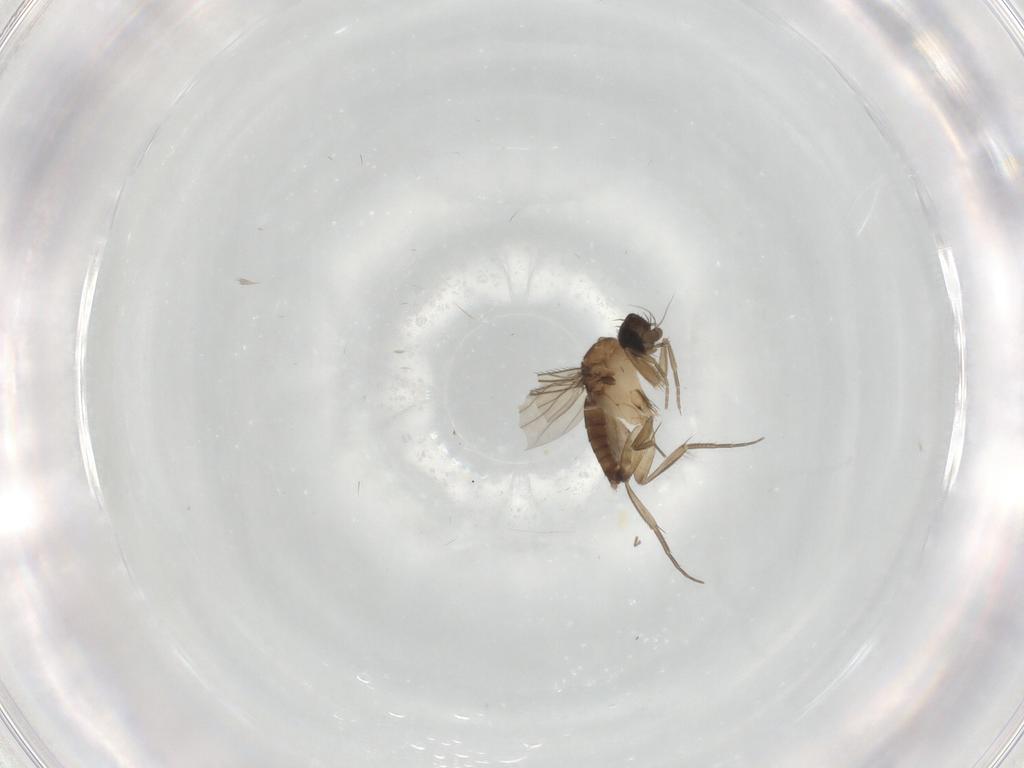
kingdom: Animalia
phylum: Arthropoda
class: Insecta
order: Diptera
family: Phoridae
